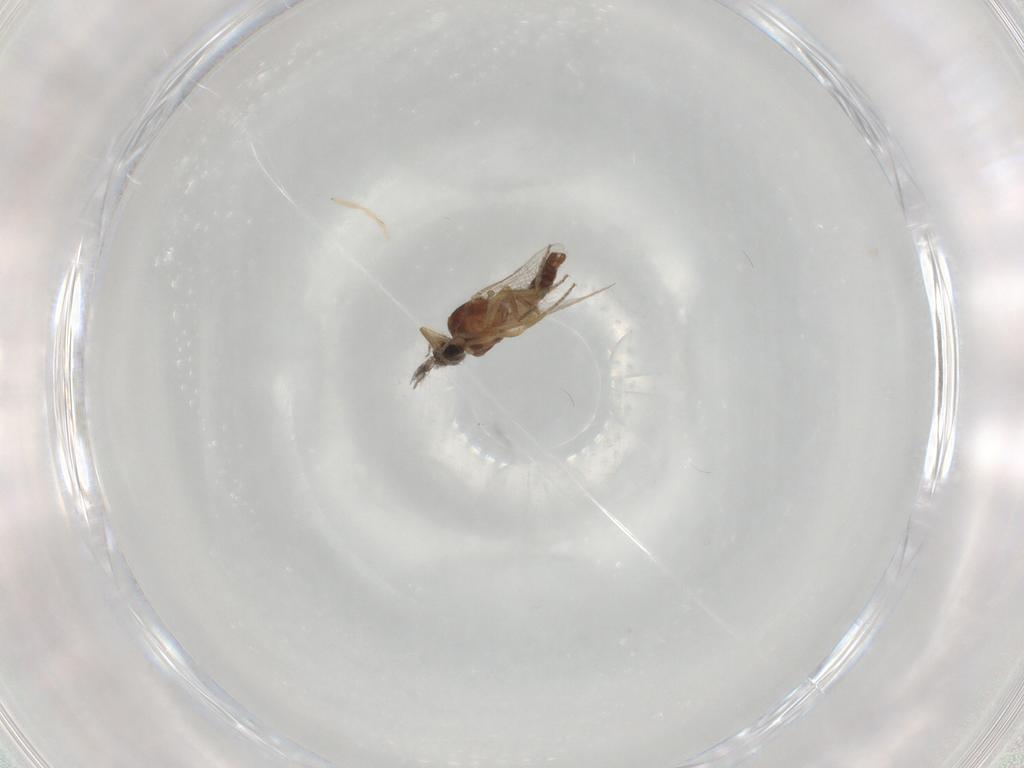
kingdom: Animalia
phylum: Arthropoda
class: Insecta
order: Diptera
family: Ceratopogonidae
